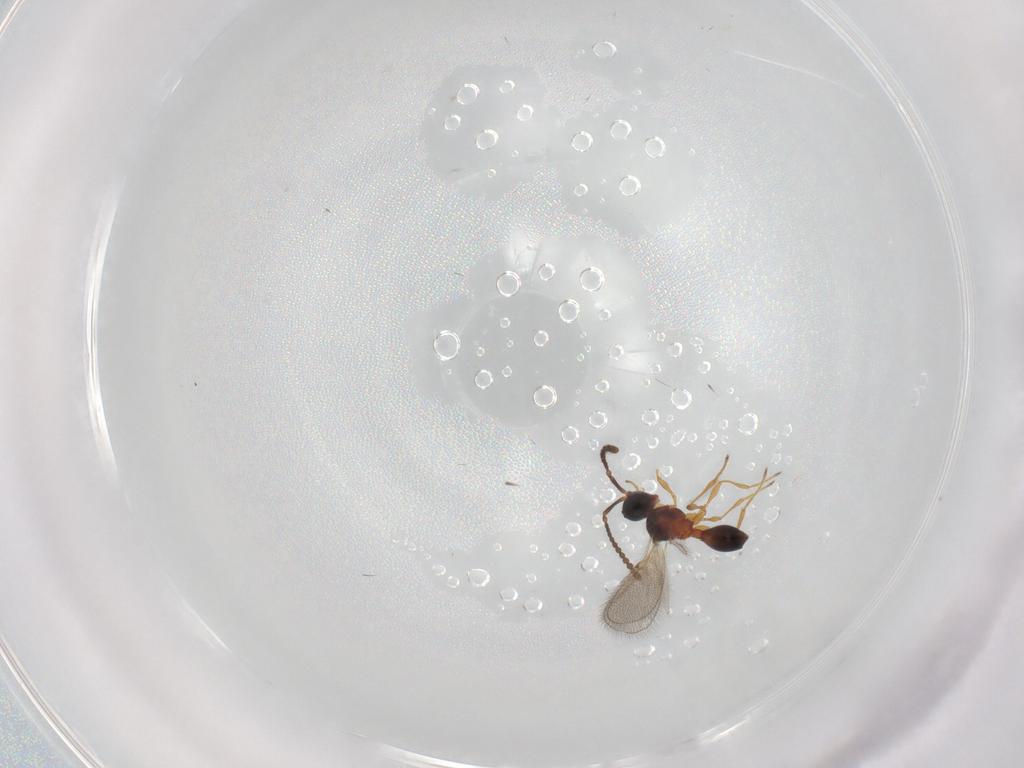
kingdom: Animalia
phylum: Arthropoda
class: Insecta
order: Hymenoptera
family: Diapriidae
